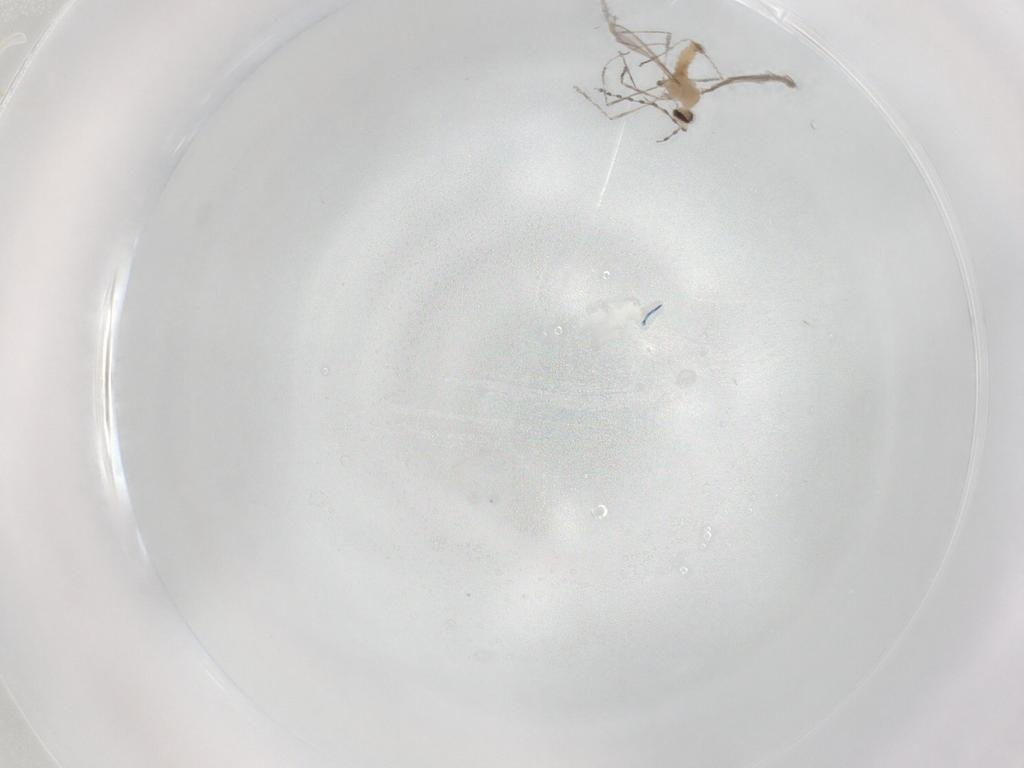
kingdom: Animalia
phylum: Arthropoda
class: Insecta
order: Diptera
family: Cecidomyiidae
